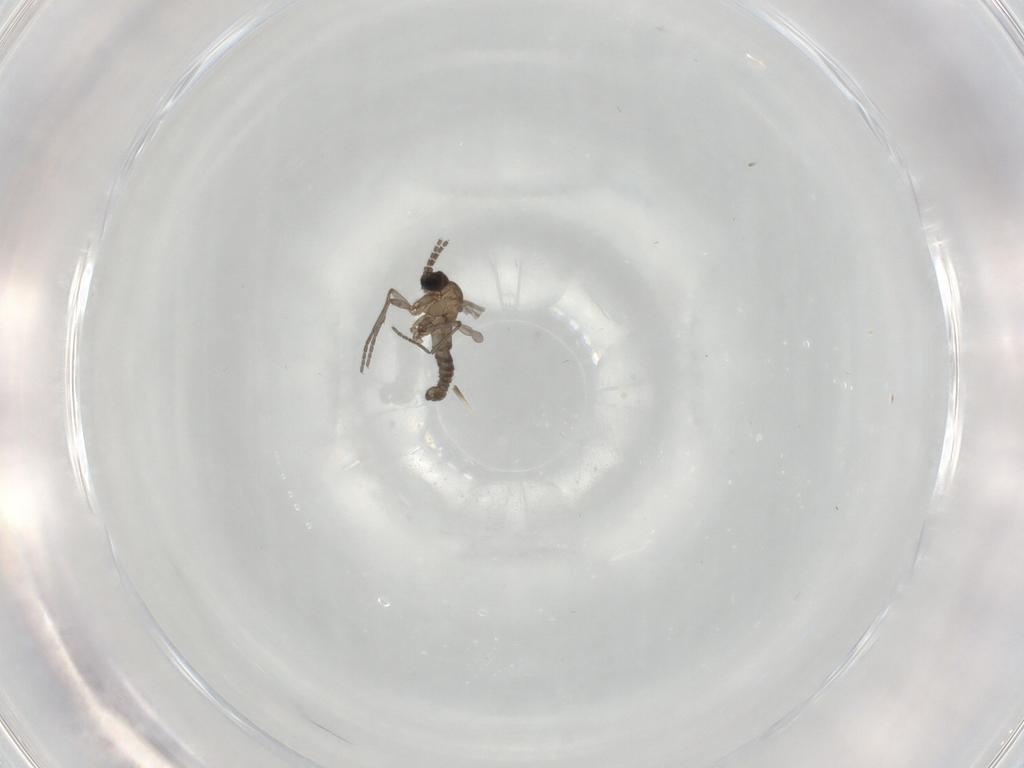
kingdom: Animalia
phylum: Arthropoda
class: Insecta
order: Diptera
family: Sciaridae
